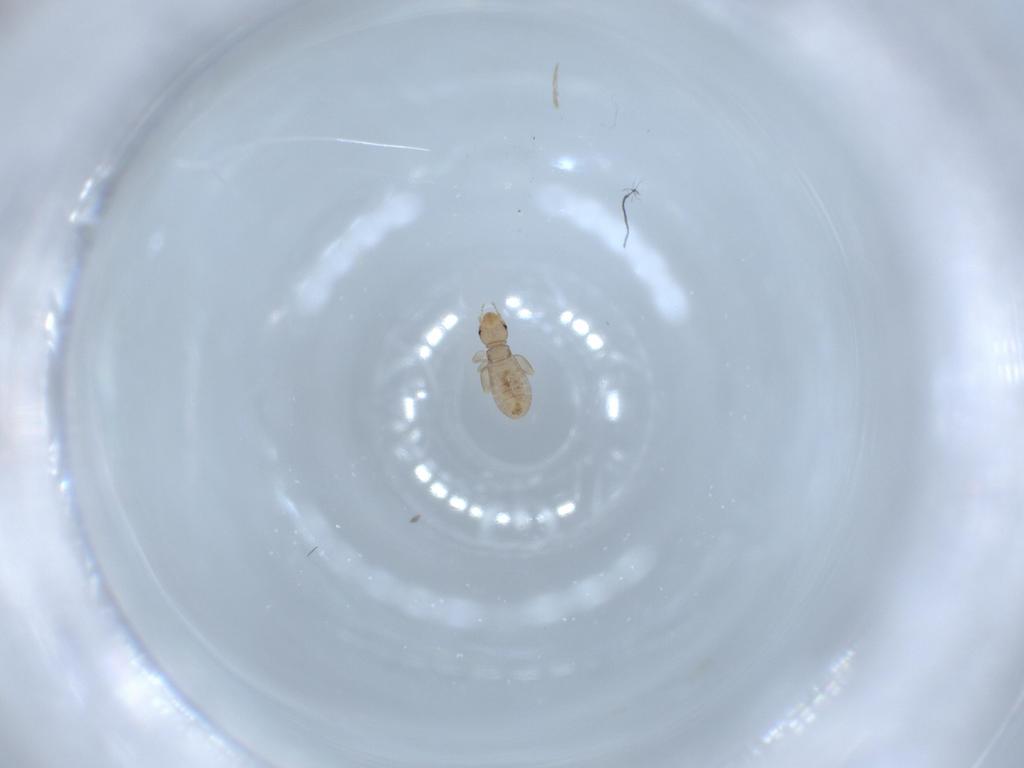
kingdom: Animalia
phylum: Arthropoda
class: Insecta
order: Psocodea
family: Liposcelididae
